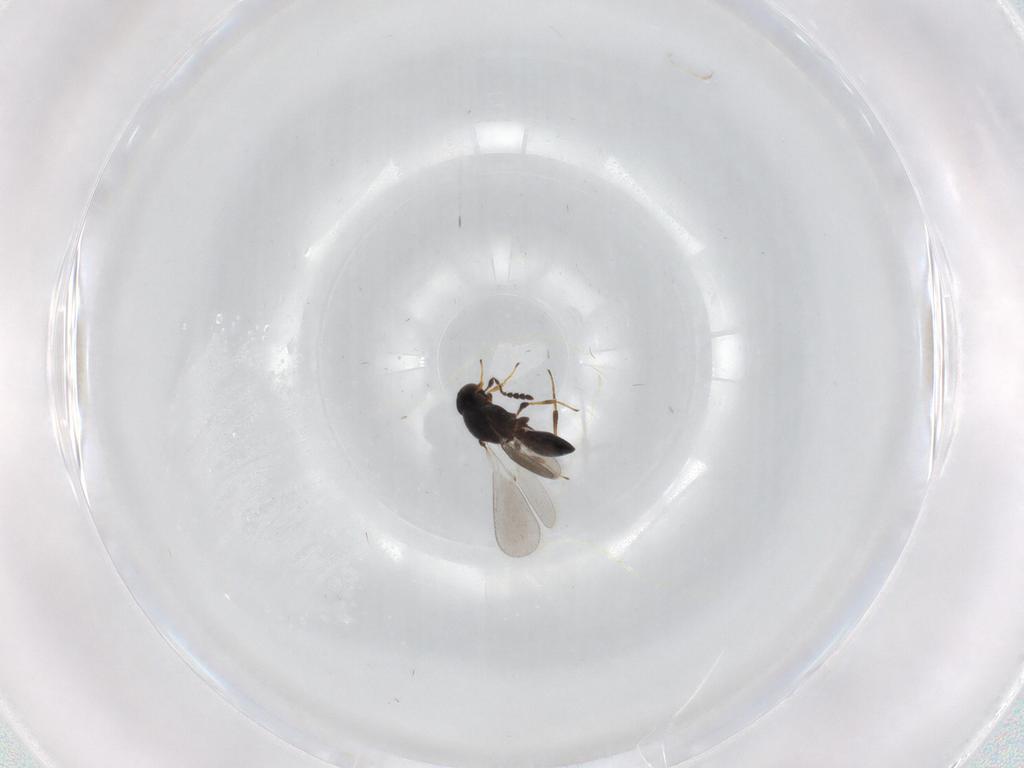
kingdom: Animalia
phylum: Arthropoda
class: Insecta
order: Hymenoptera
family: Platygastridae
